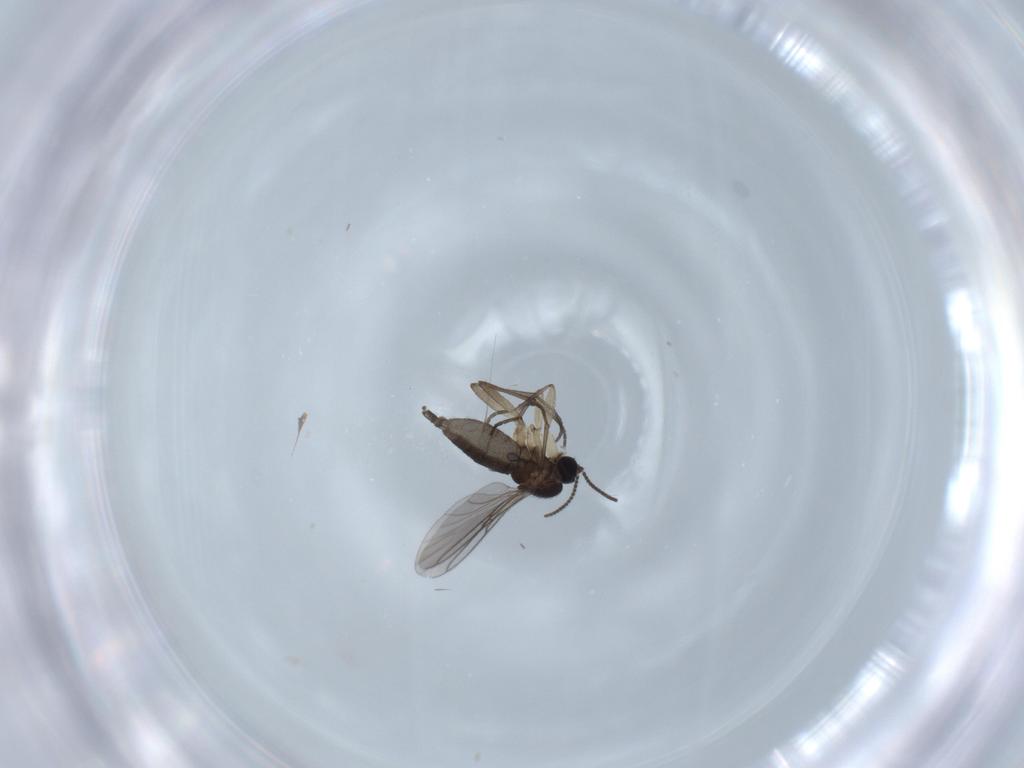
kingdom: Animalia
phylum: Arthropoda
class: Insecta
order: Diptera
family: Sciaridae
